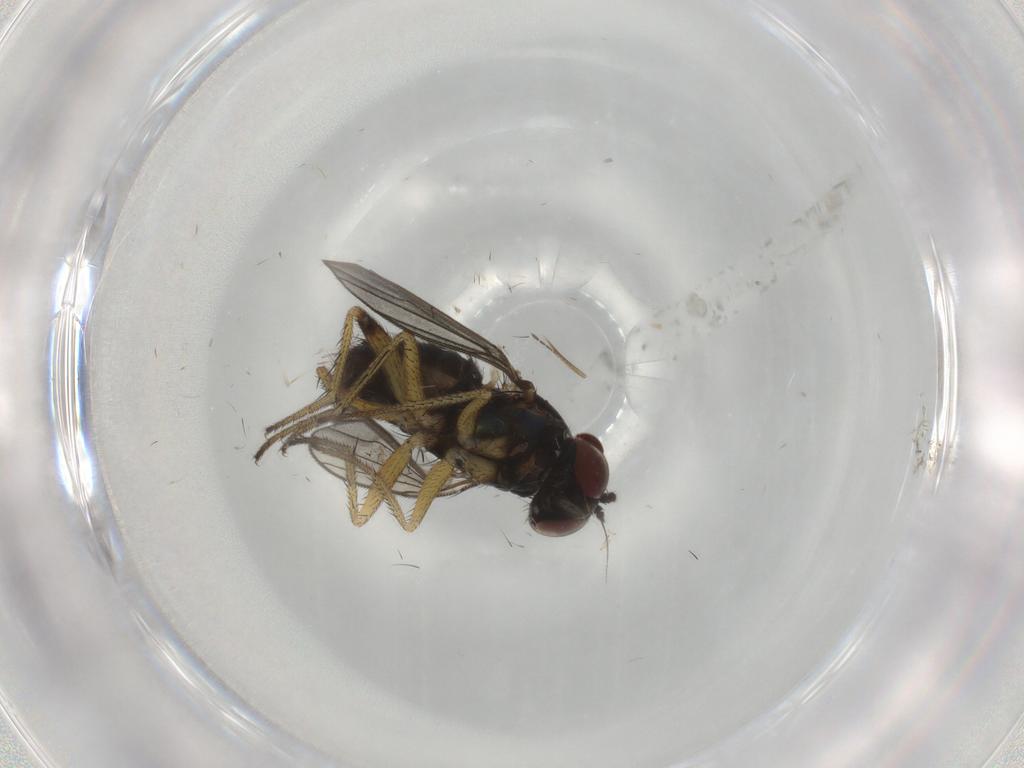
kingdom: Animalia
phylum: Arthropoda
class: Insecta
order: Diptera
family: Dolichopodidae
